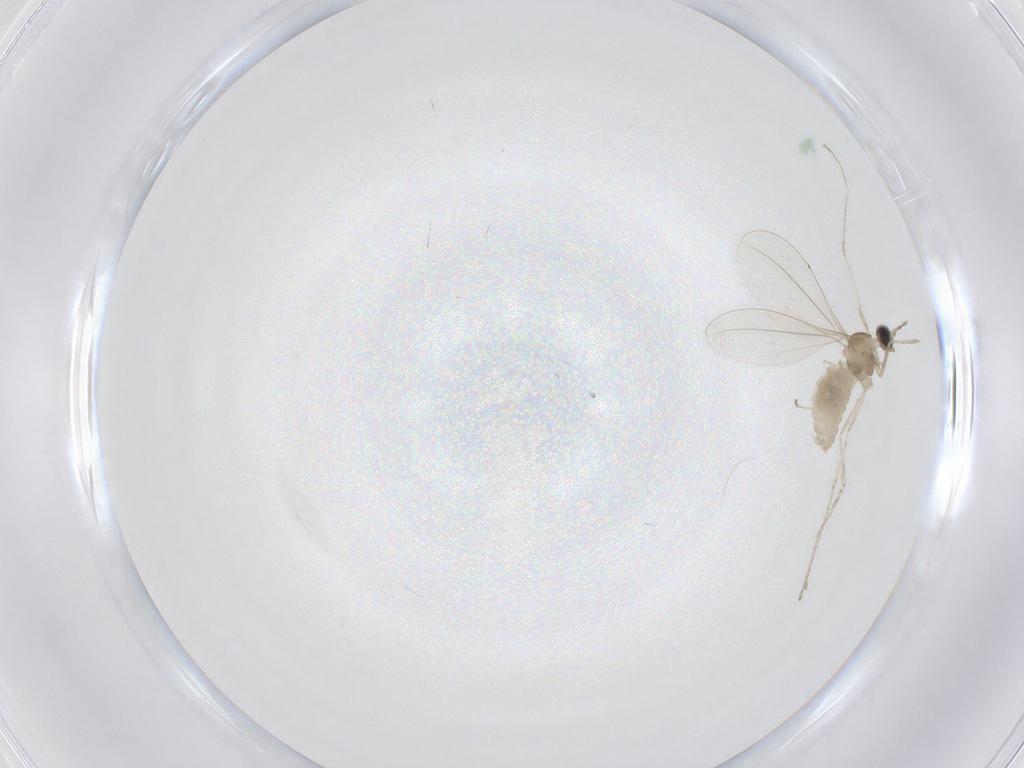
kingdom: Animalia
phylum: Arthropoda
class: Insecta
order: Diptera
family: Cecidomyiidae
